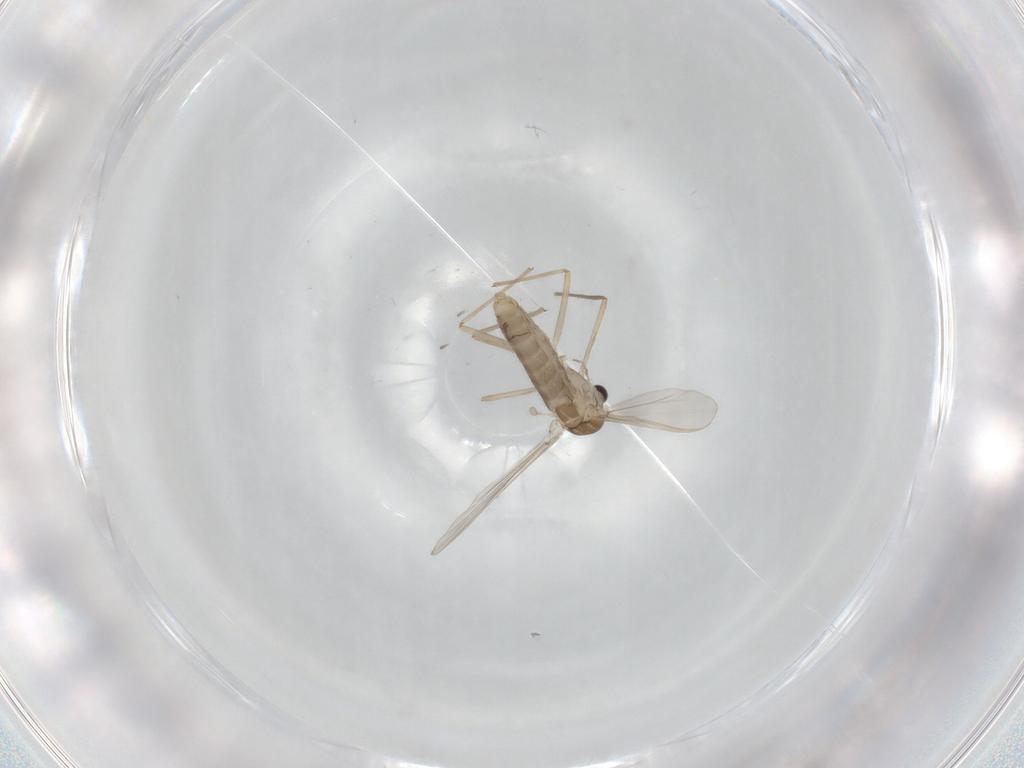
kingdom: Animalia
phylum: Arthropoda
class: Insecta
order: Diptera
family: Chironomidae
